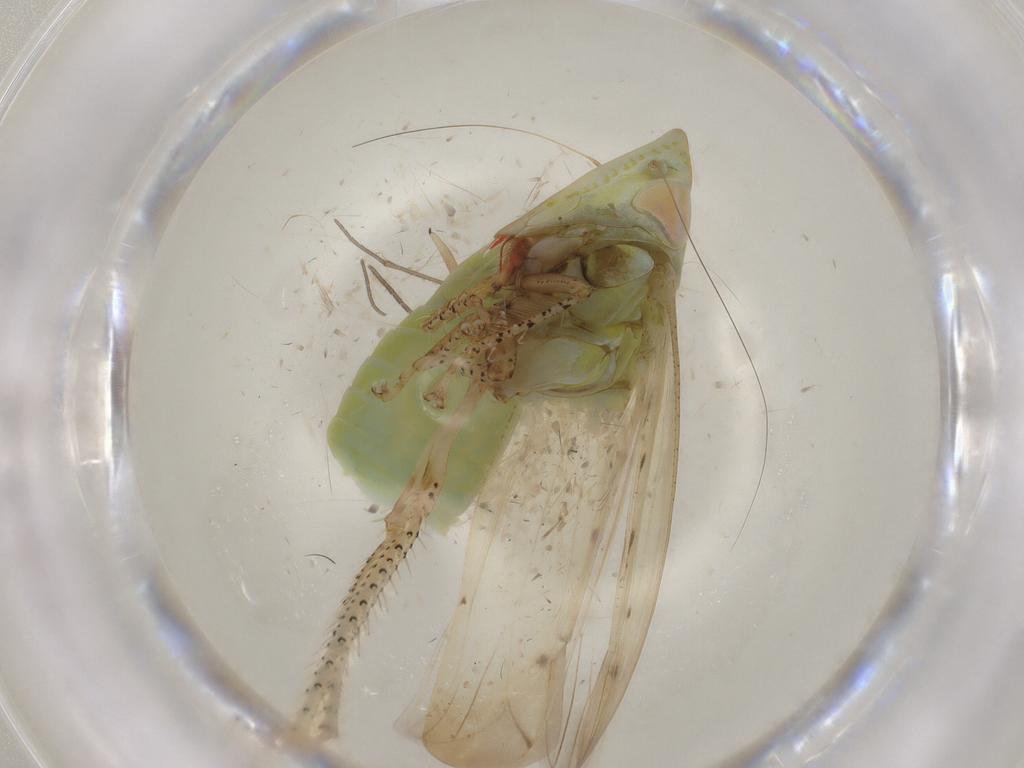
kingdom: Animalia
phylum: Arthropoda
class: Insecta
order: Hemiptera
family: Cicadellidae
